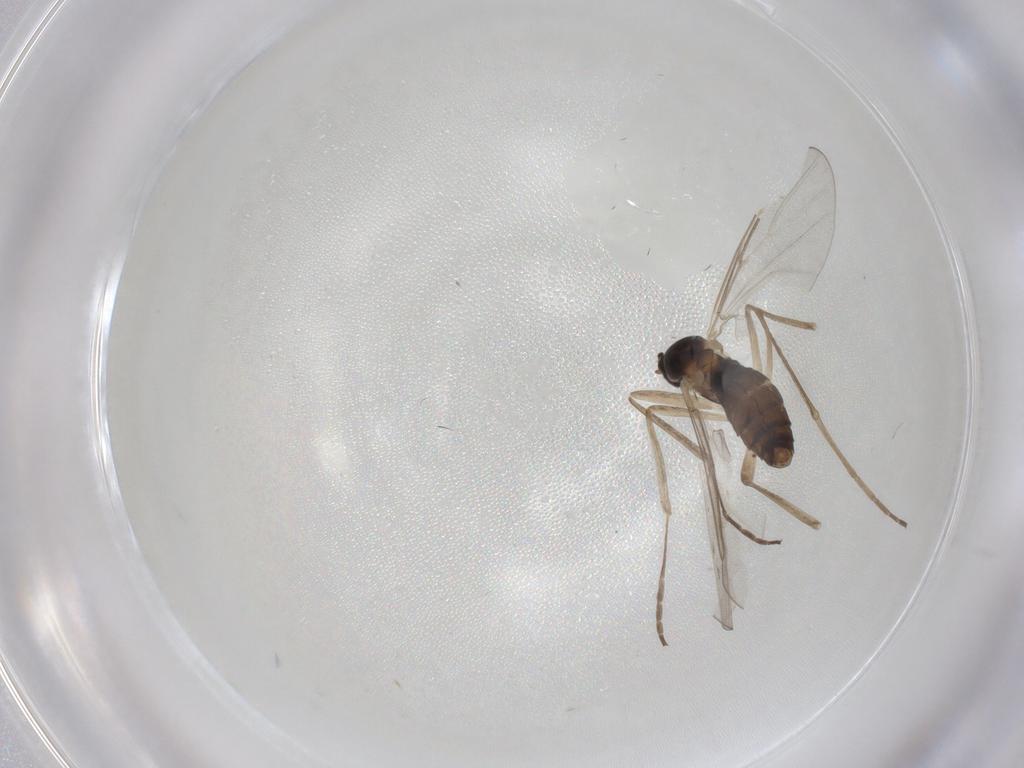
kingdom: Animalia
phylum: Arthropoda
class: Insecta
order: Diptera
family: Cecidomyiidae
